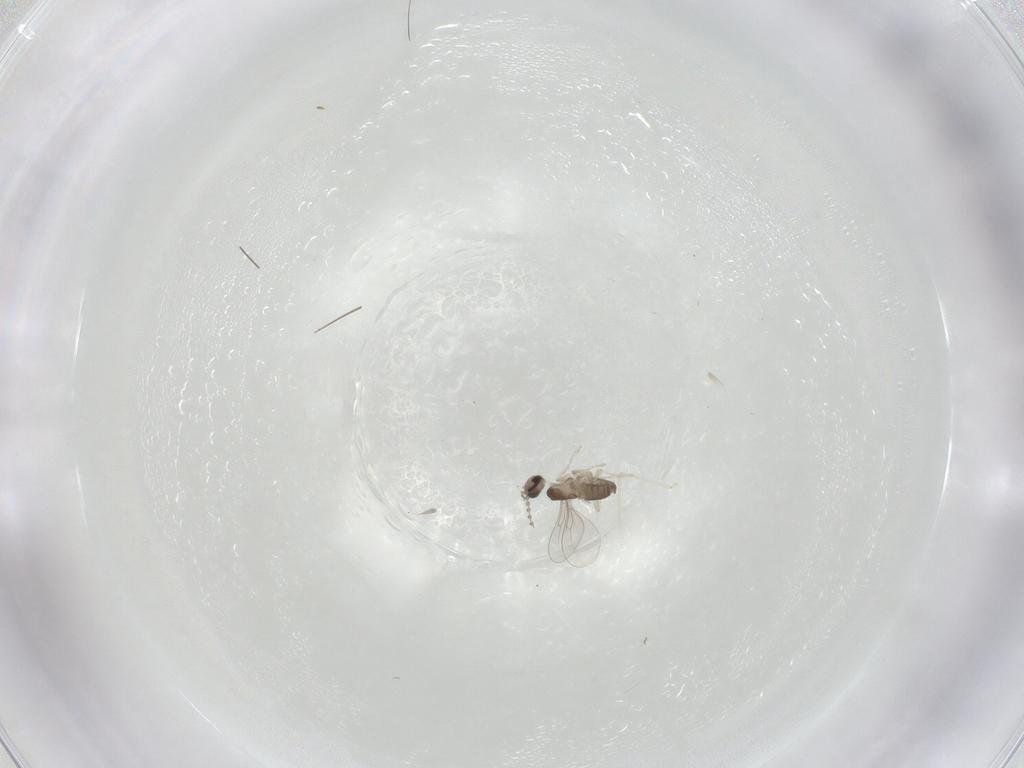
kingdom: Animalia
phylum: Arthropoda
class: Insecta
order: Diptera
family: Cecidomyiidae
